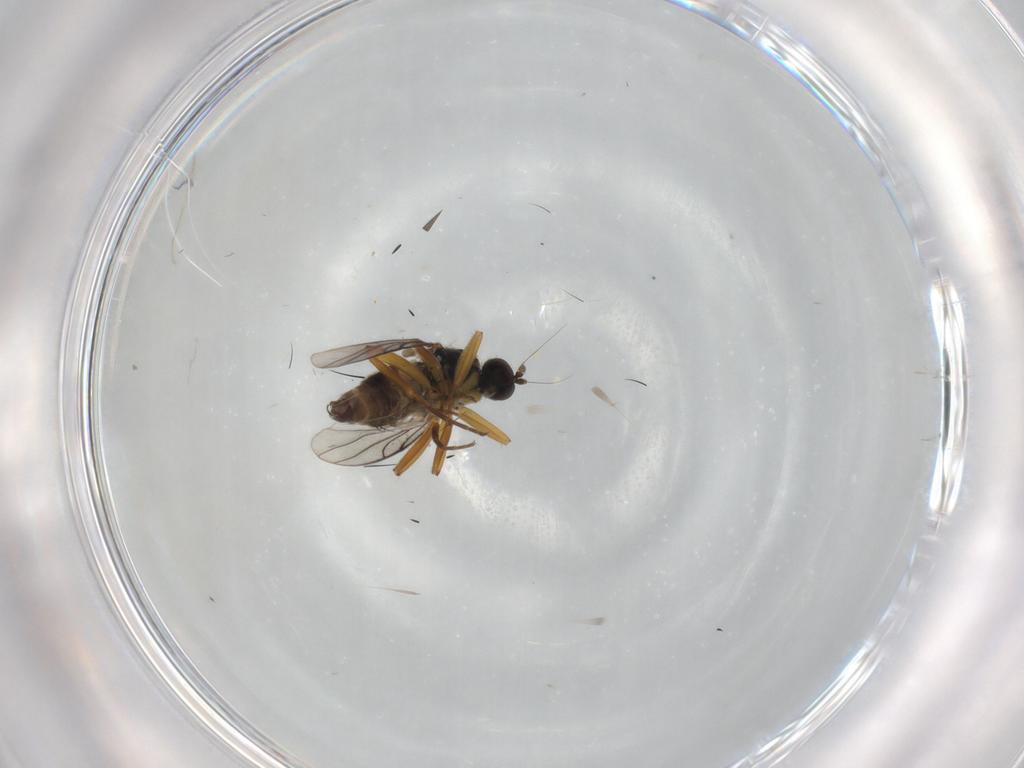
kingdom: Animalia
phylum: Arthropoda
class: Insecta
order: Diptera
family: Hybotidae
